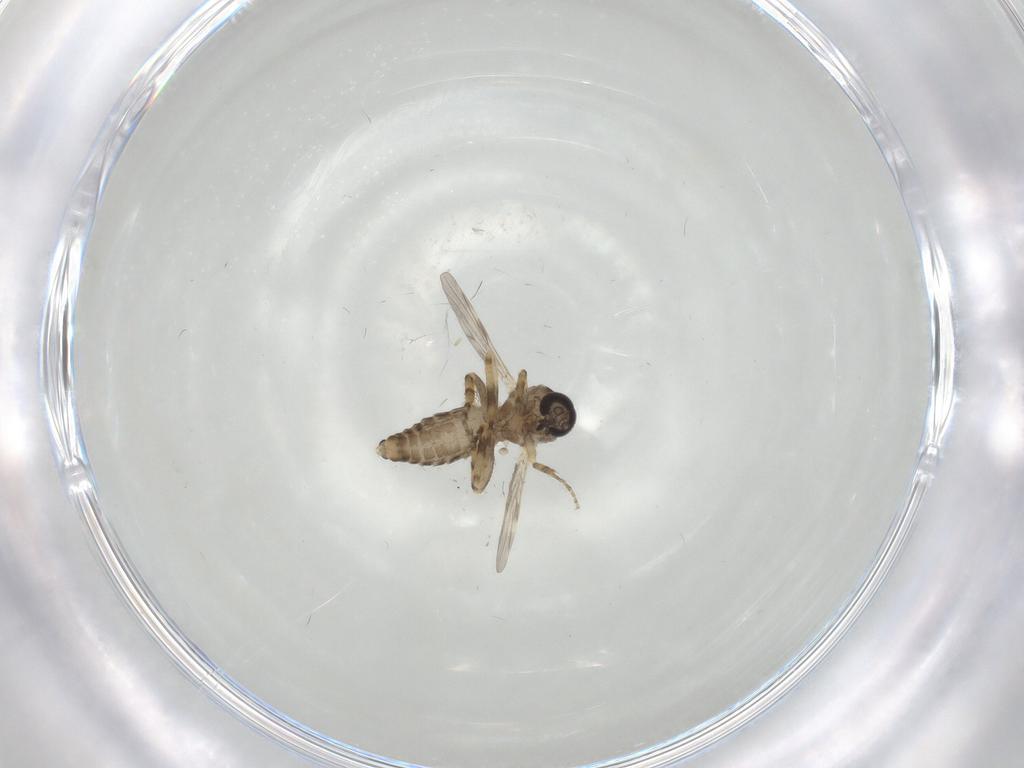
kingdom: Animalia
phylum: Arthropoda
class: Insecta
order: Diptera
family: Ceratopogonidae
